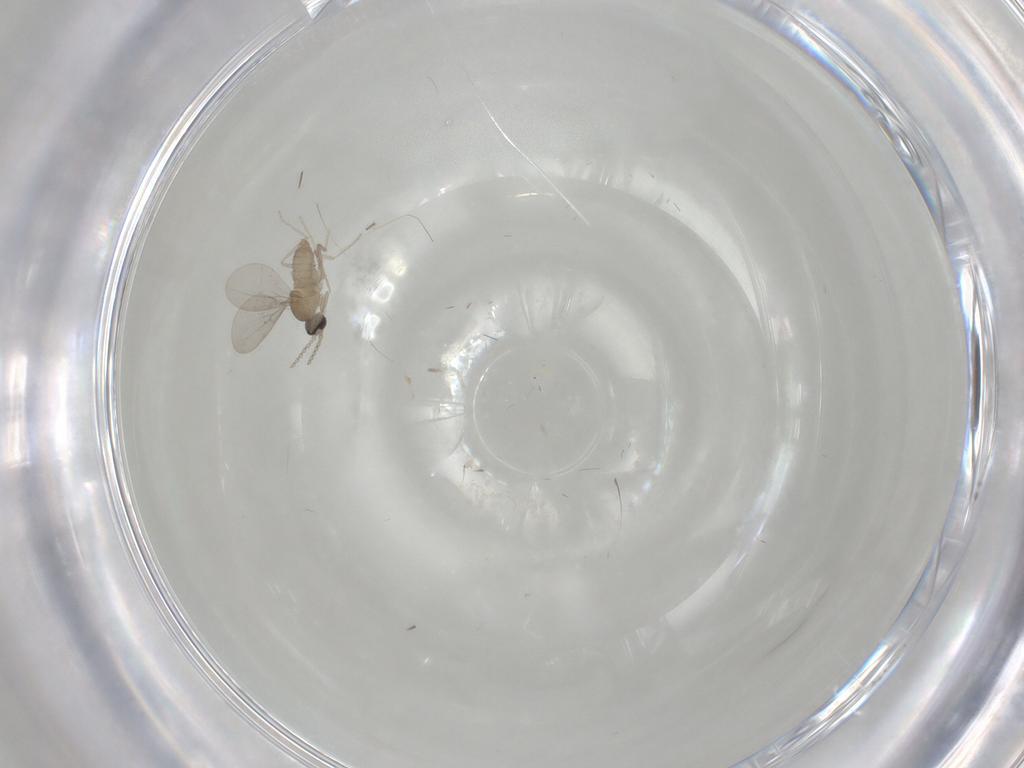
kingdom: Animalia
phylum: Arthropoda
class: Insecta
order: Diptera
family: Cecidomyiidae
